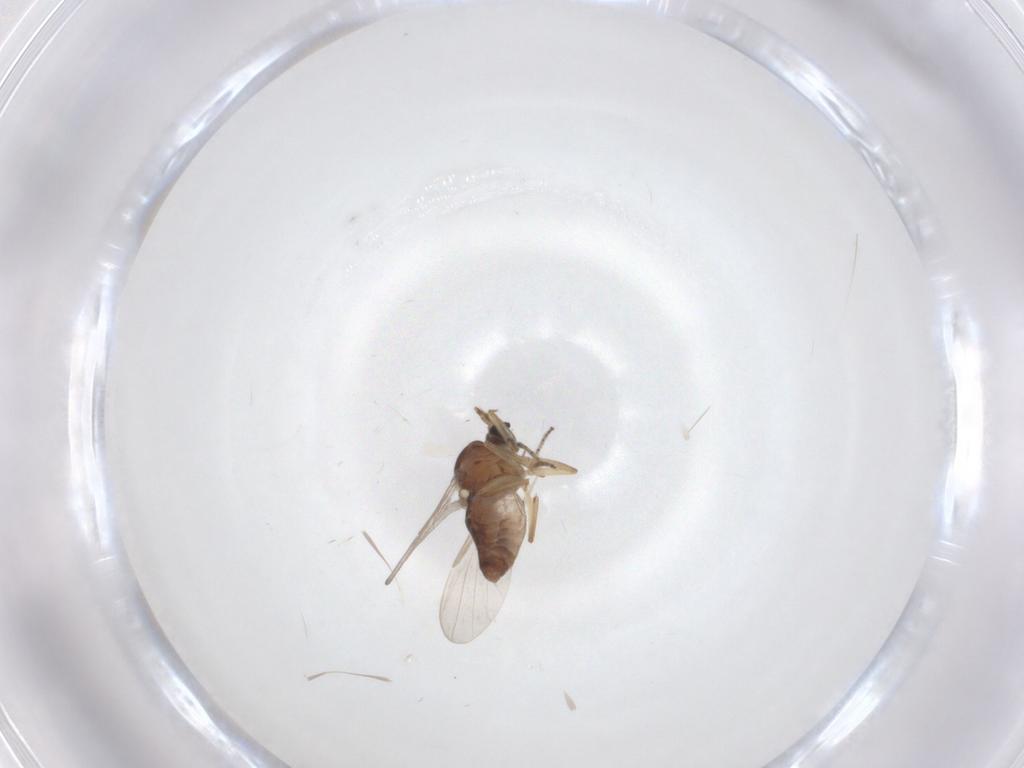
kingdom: Animalia
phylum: Arthropoda
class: Insecta
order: Diptera
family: Ceratopogonidae
